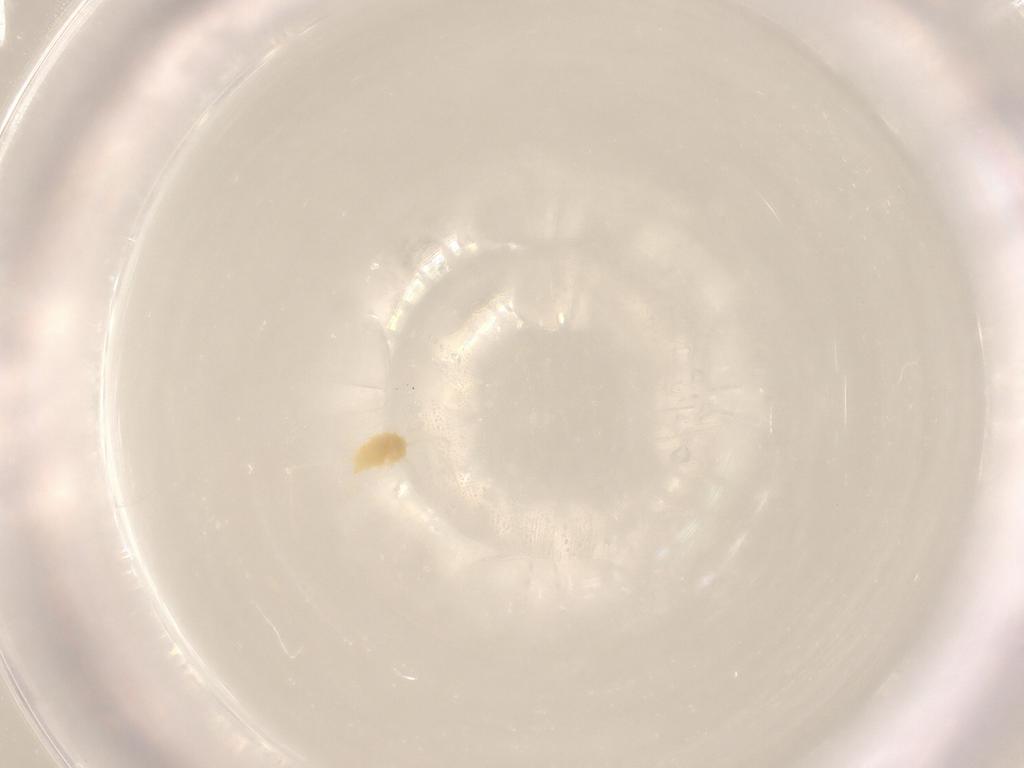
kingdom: Animalia
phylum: Arthropoda
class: Arachnida
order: Trombidiformes
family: Tetranychidae
